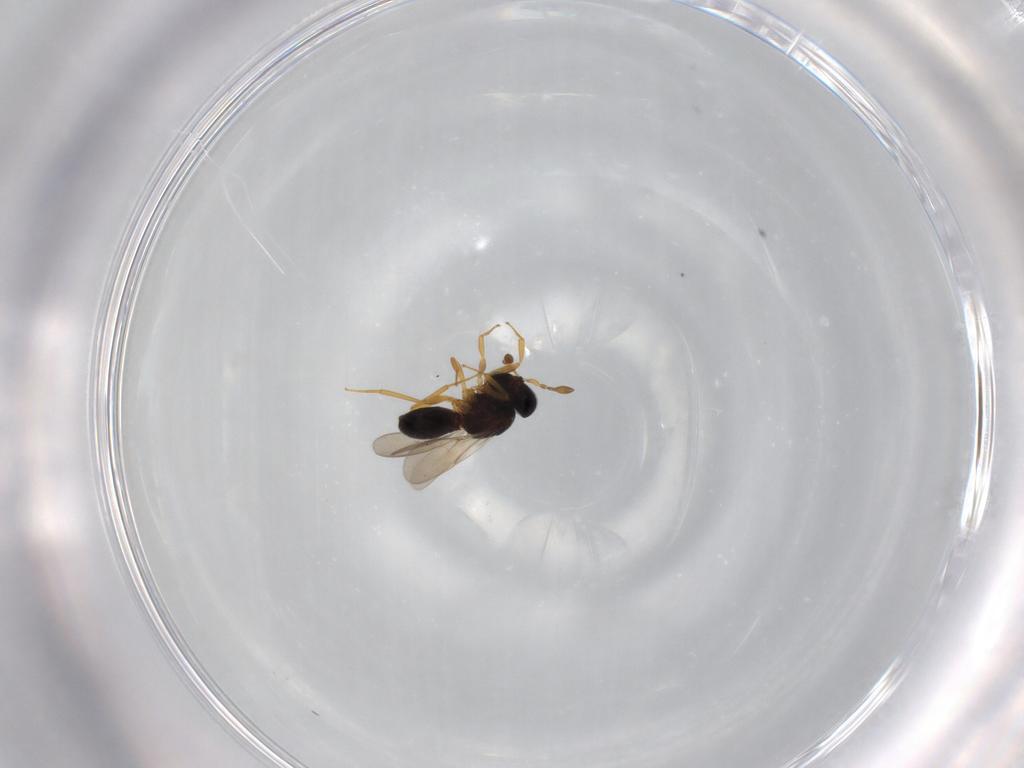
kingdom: Animalia
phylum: Arthropoda
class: Insecta
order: Hymenoptera
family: Scelionidae
